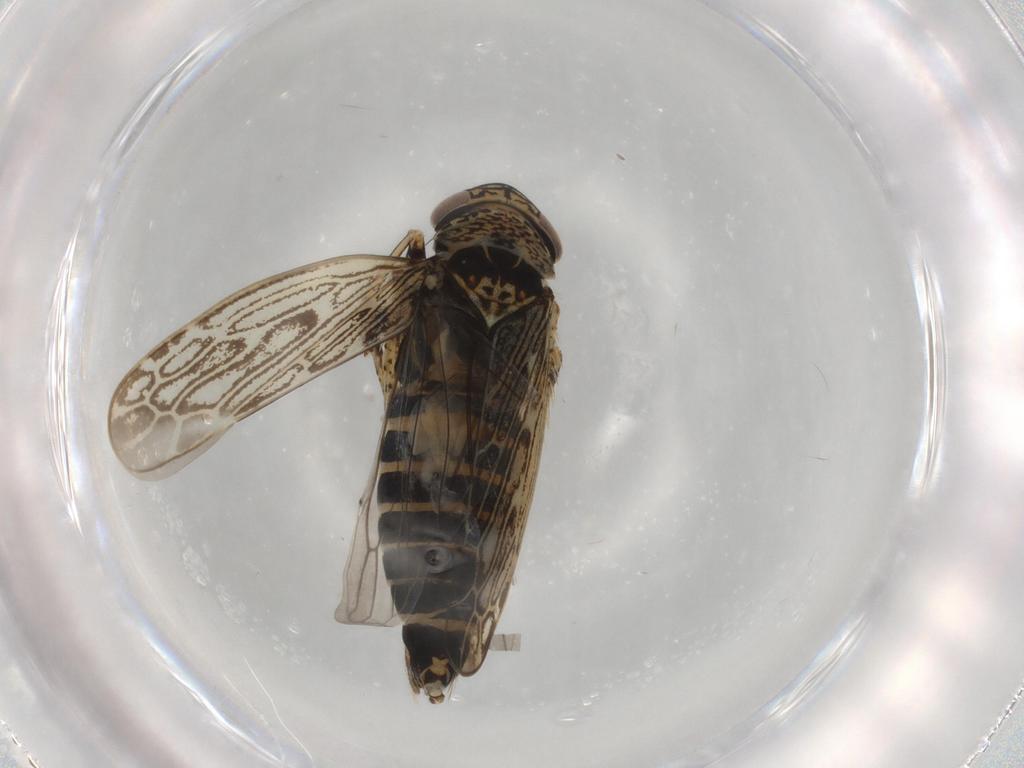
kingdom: Animalia
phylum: Arthropoda
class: Insecta
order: Hemiptera
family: Cicadellidae
